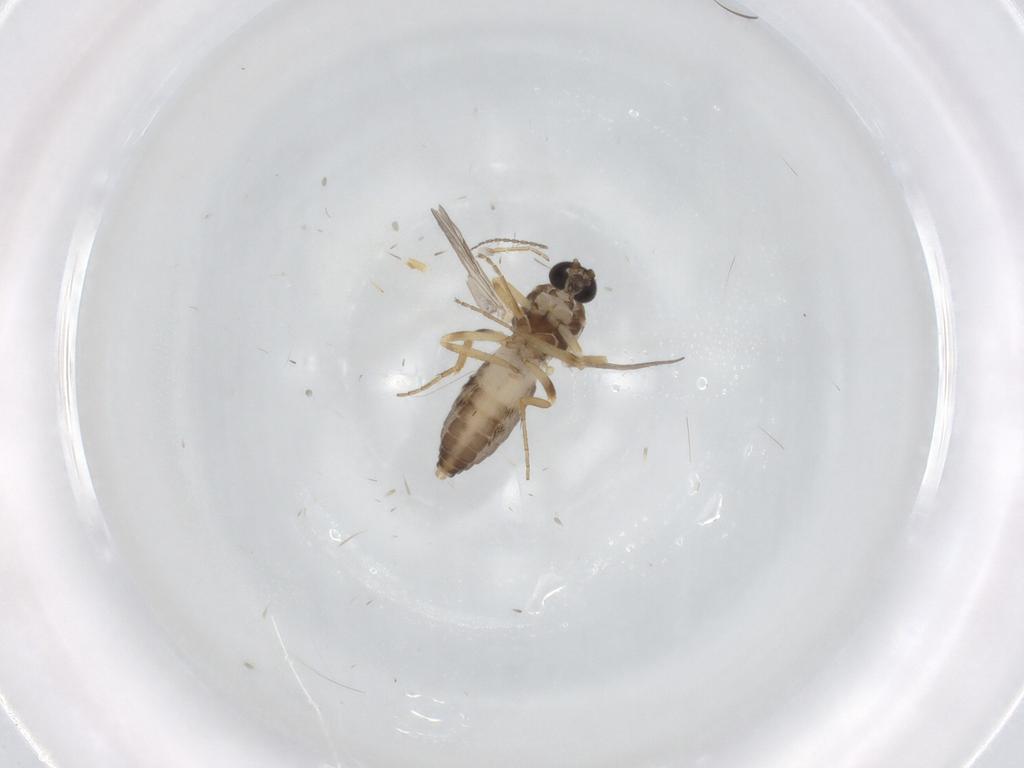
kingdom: Animalia
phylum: Arthropoda
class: Insecta
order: Diptera
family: Ceratopogonidae
